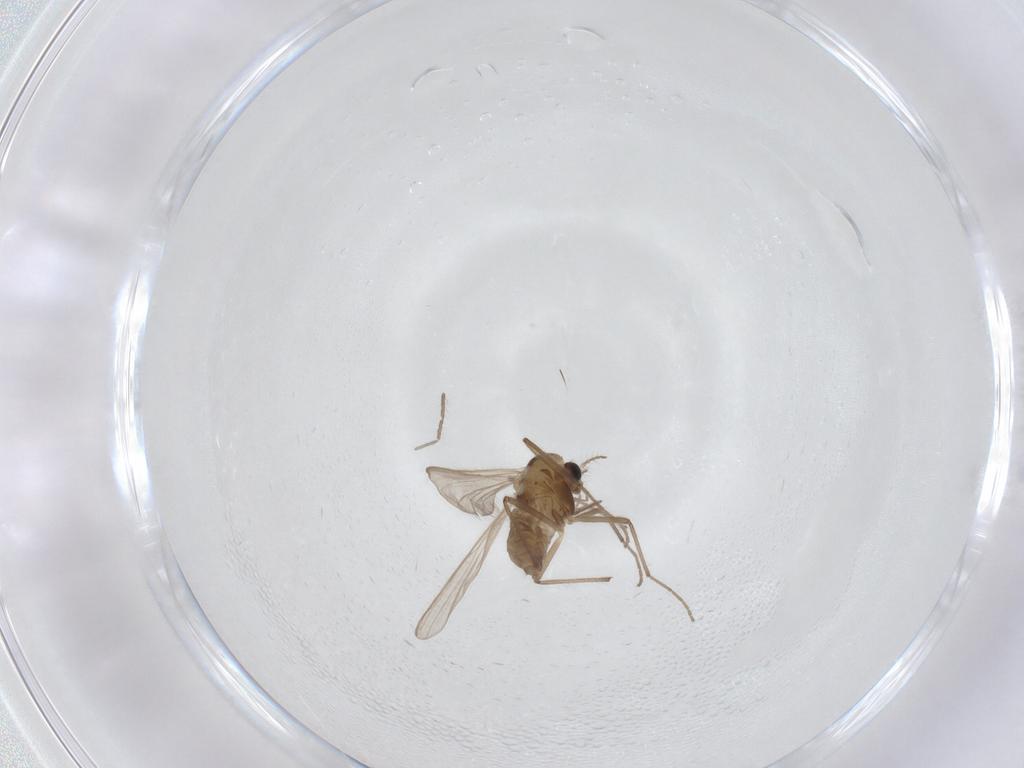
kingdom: Animalia
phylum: Arthropoda
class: Insecta
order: Diptera
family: Chironomidae
